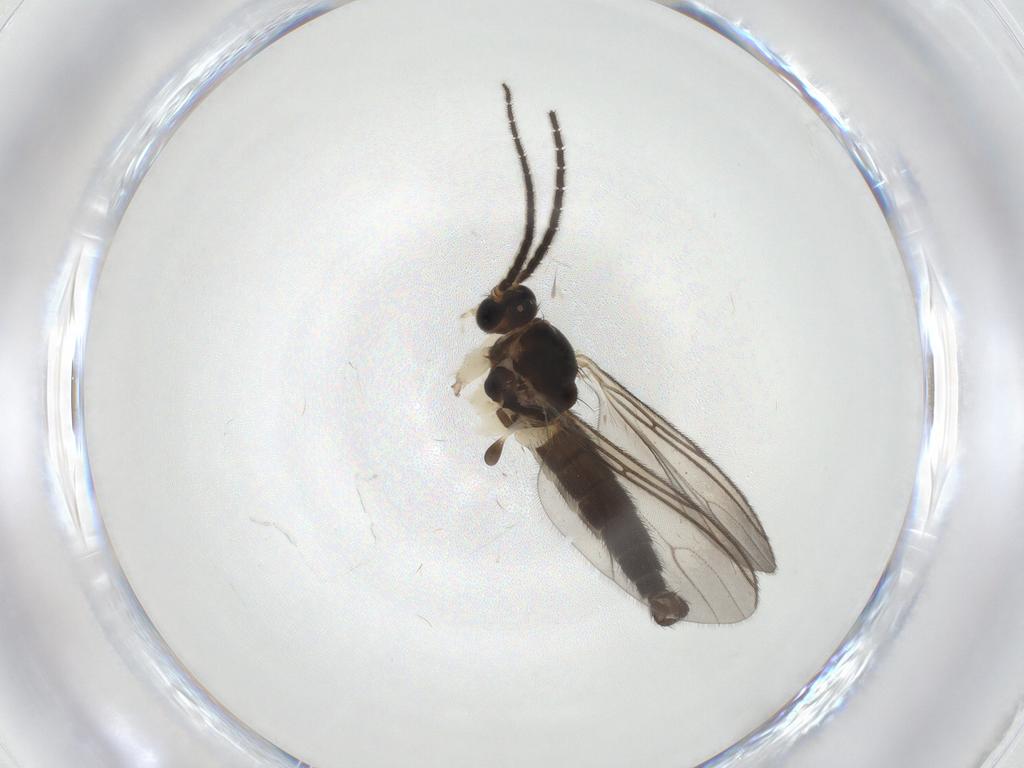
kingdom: Animalia
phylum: Arthropoda
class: Insecta
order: Diptera
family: Sciaridae
